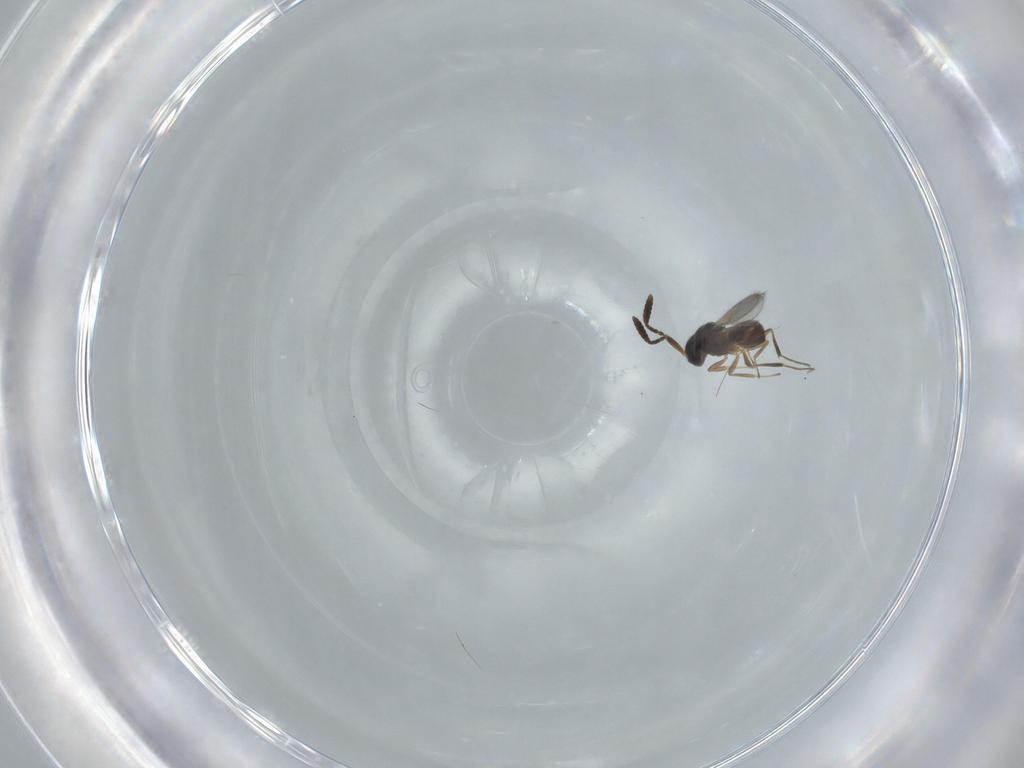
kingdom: Animalia
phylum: Arthropoda
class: Insecta
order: Hymenoptera
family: Scelionidae
